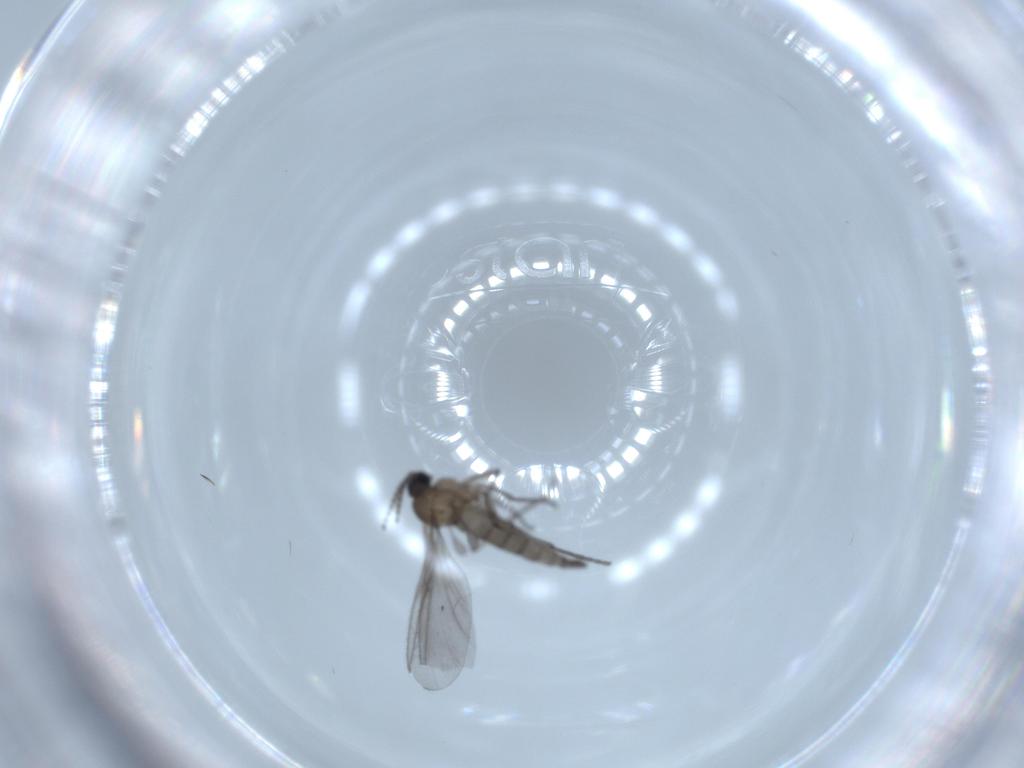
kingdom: Animalia
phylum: Arthropoda
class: Insecta
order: Diptera
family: Sciaridae
